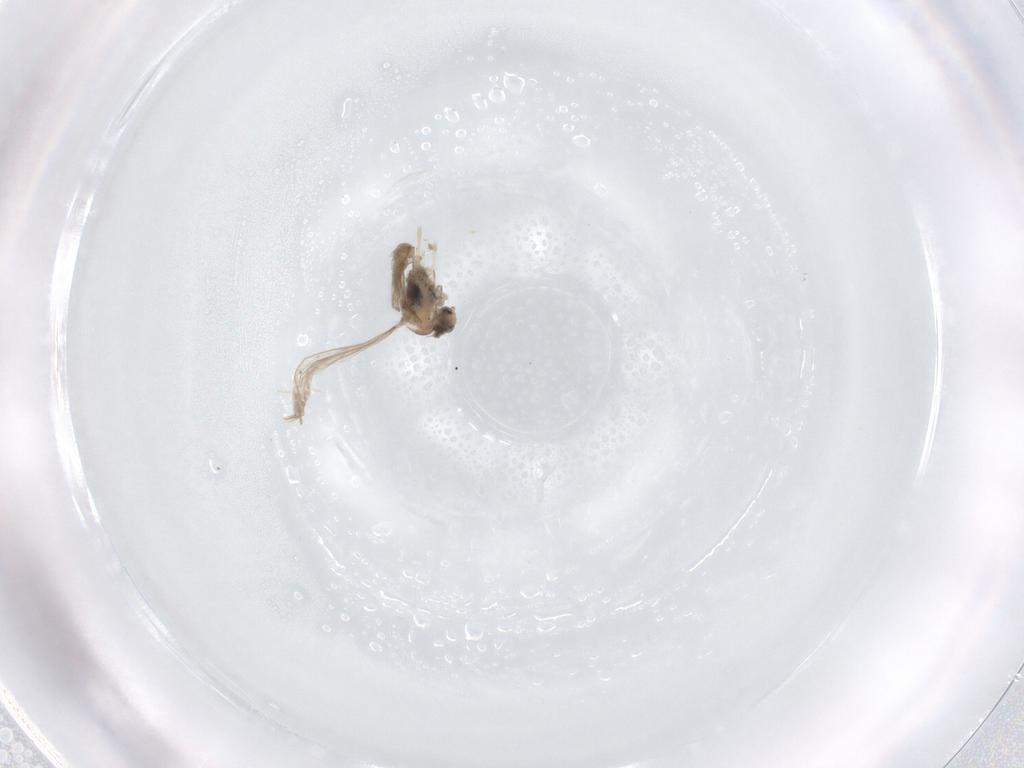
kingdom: Animalia
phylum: Arthropoda
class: Insecta
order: Diptera
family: Cecidomyiidae
